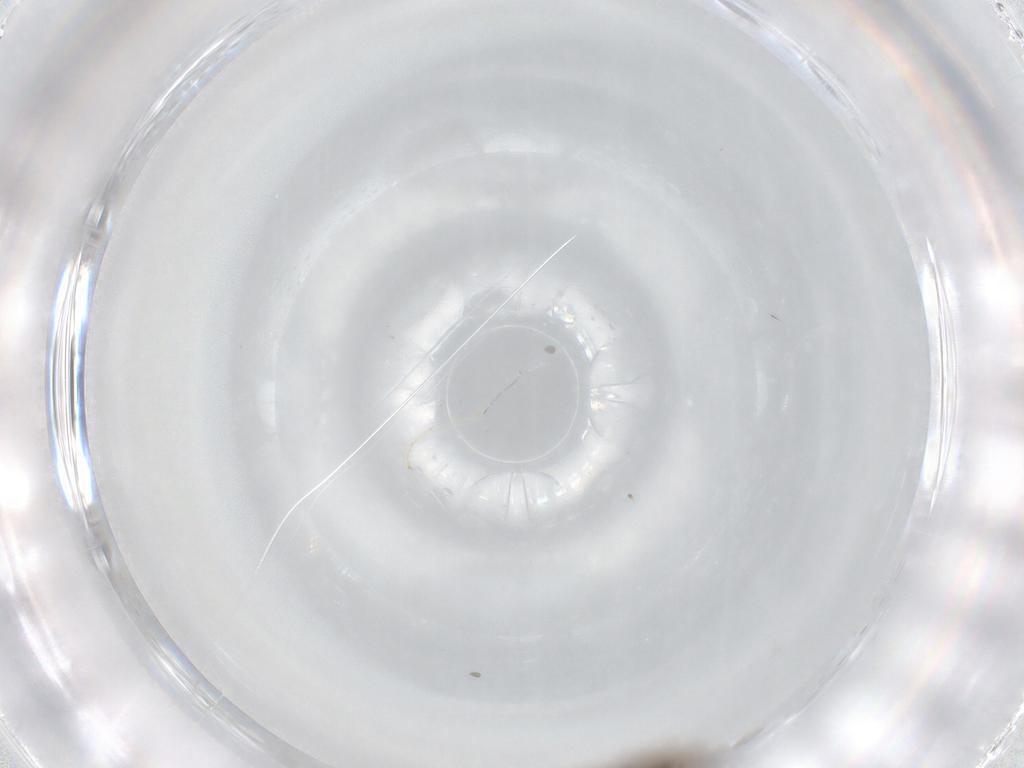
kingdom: Animalia
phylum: Arthropoda
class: Insecta
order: Diptera
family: Sciaridae
